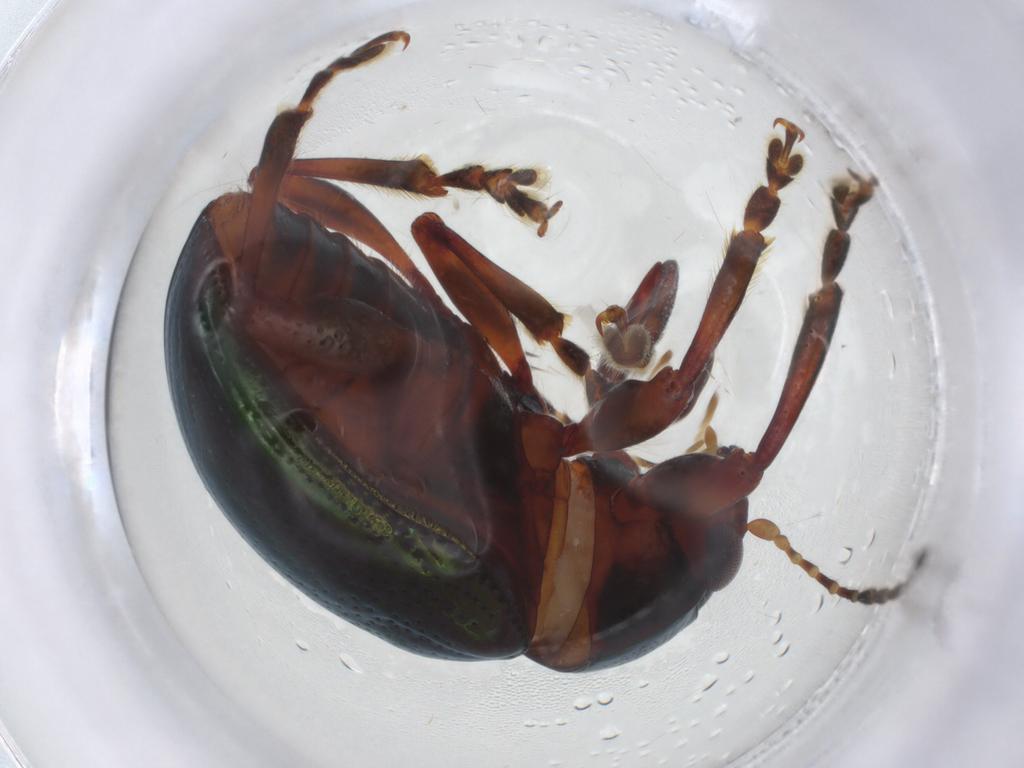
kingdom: Animalia
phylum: Arthropoda
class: Insecta
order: Coleoptera
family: Chrysomelidae
